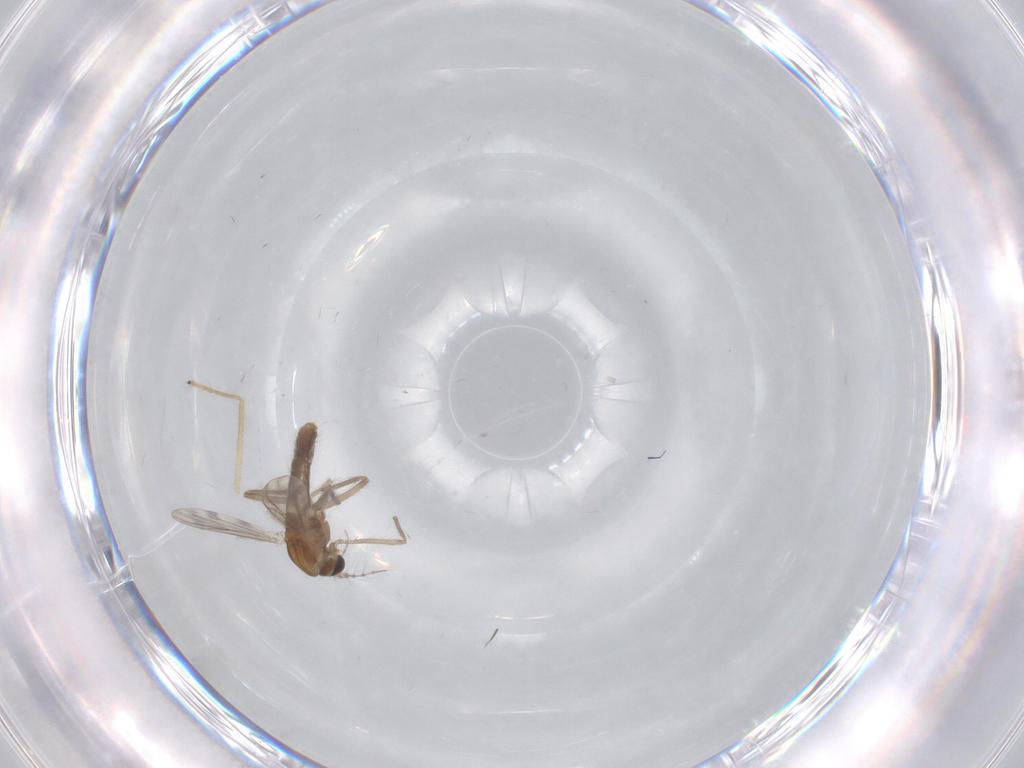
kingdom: Animalia
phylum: Arthropoda
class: Insecta
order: Diptera
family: Chironomidae
